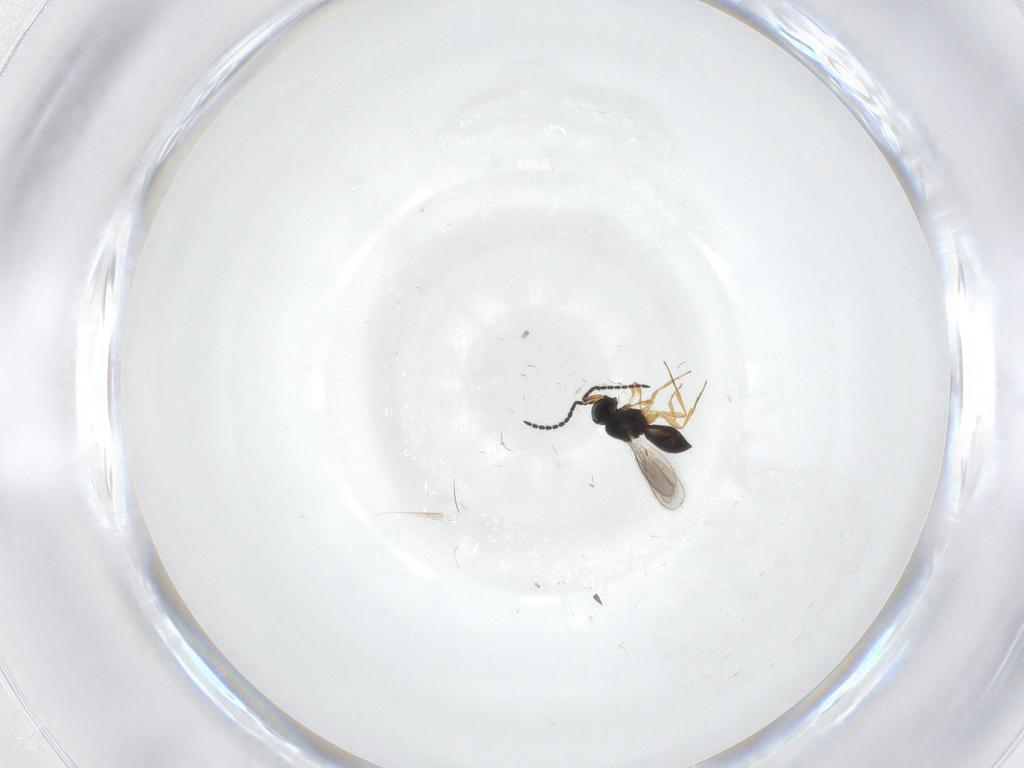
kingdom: Animalia
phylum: Arthropoda
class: Insecta
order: Hymenoptera
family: Scelionidae
